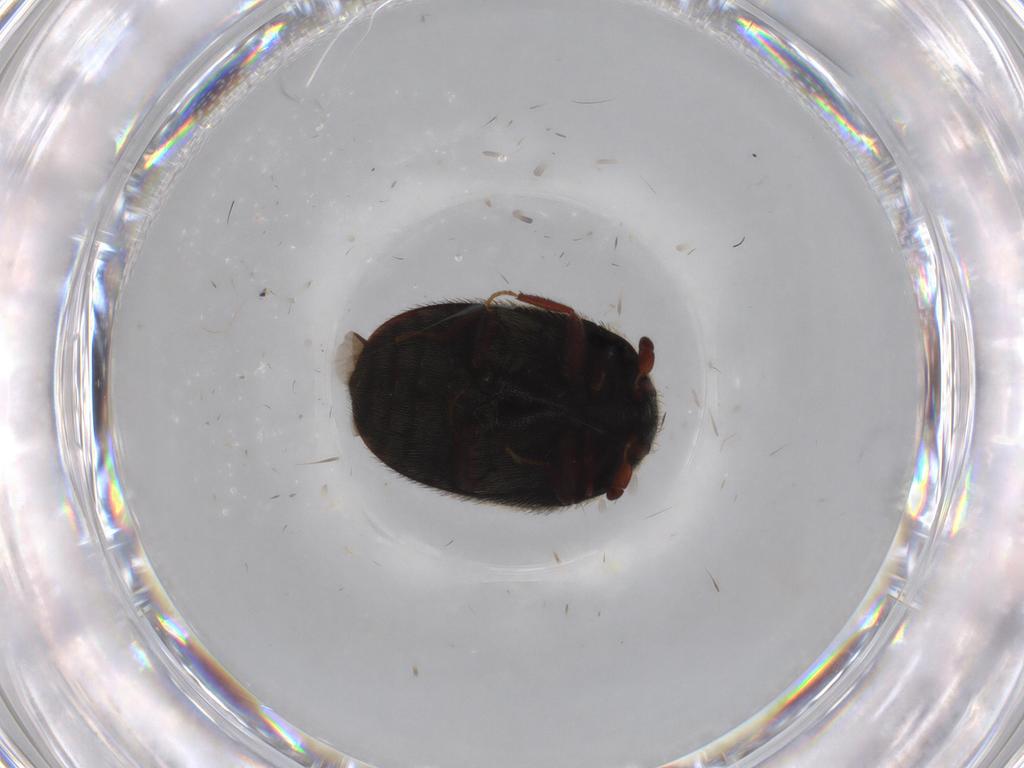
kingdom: Animalia
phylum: Arthropoda
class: Insecta
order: Coleoptera
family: Dermestidae
